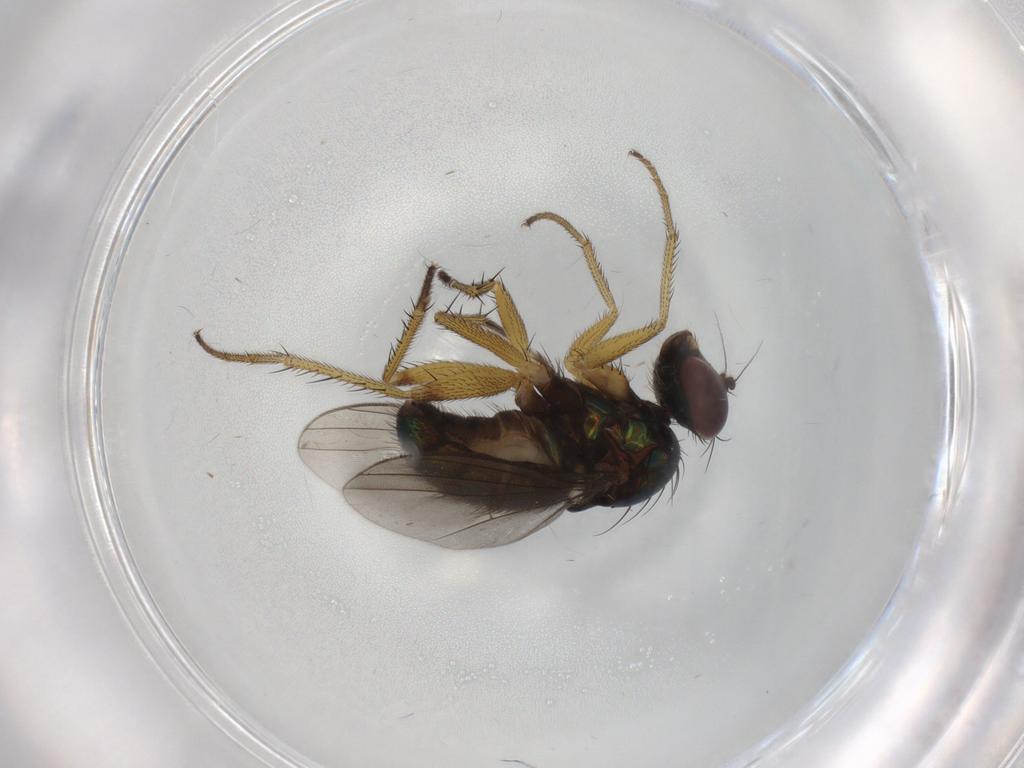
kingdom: Animalia
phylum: Arthropoda
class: Insecta
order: Diptera
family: Dolichopodidae
